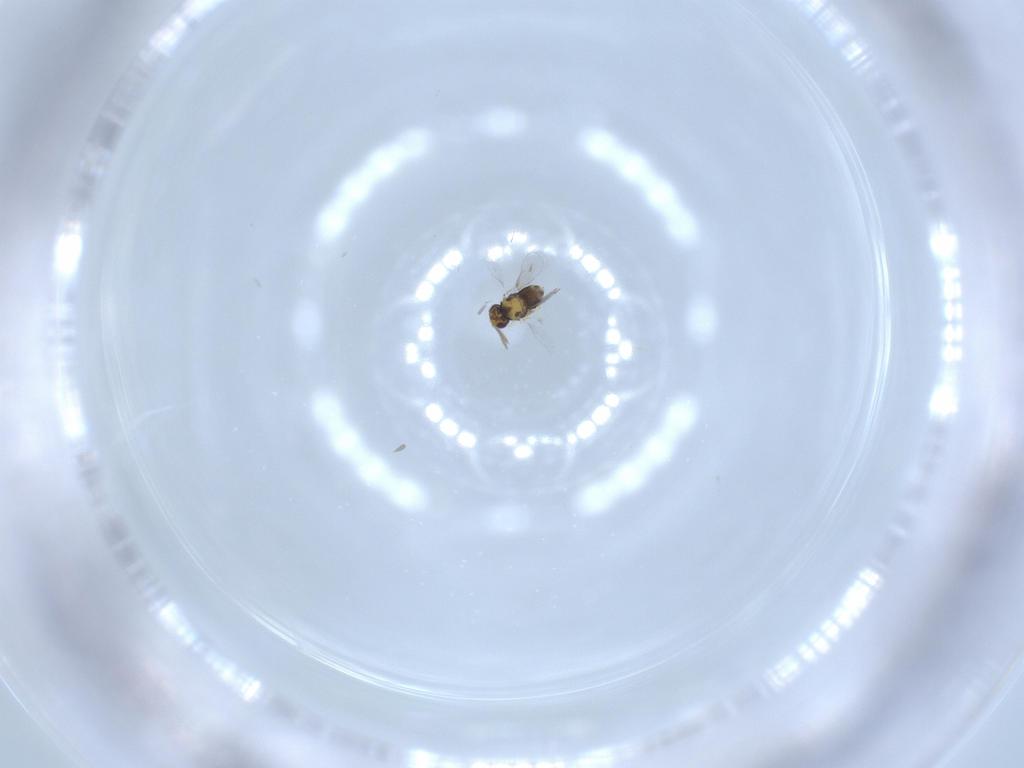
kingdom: Animalia
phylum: Arthropoda
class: Insecta
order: Hymenoptera
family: Aphelinidae
